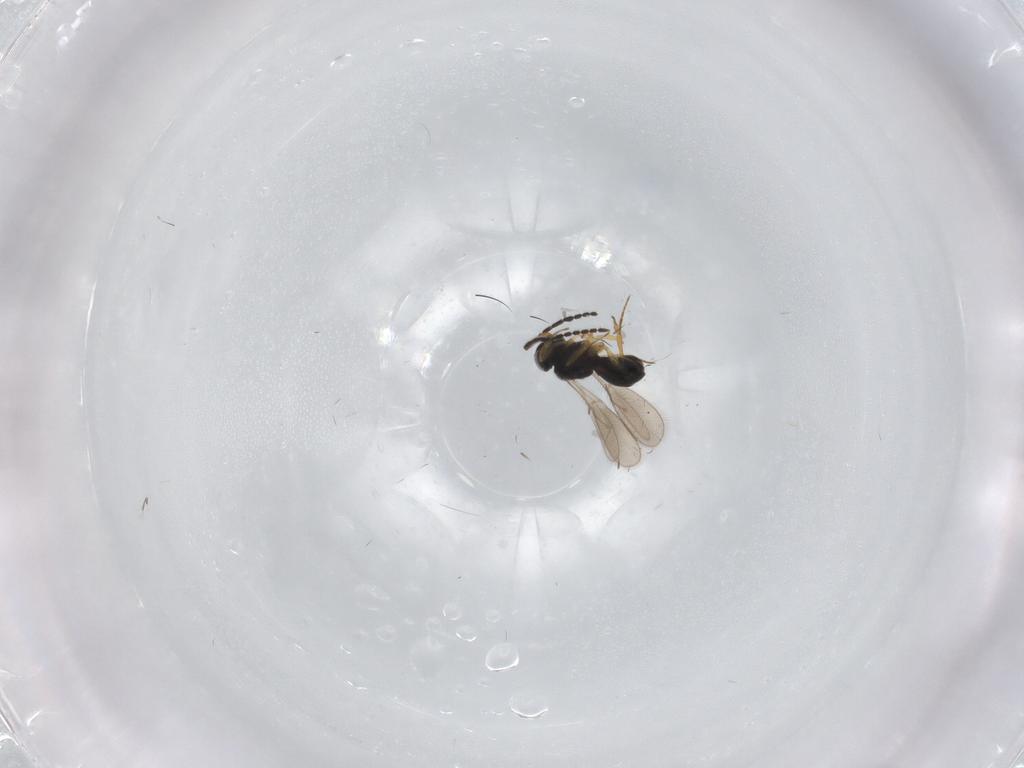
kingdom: Animalia
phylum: Arthropoda
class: Insecta
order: Hymenoptera
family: Scelionidae
